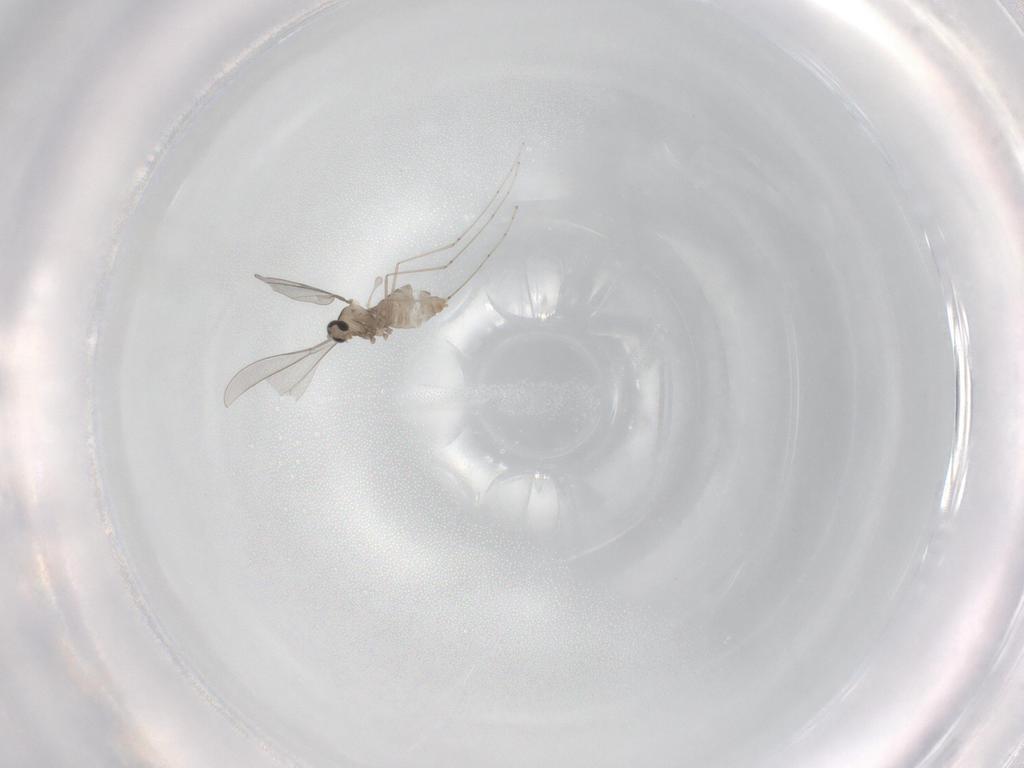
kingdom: Animalia
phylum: Arthropoda
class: Insecta
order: Diptera
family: Cecidomyiidae
